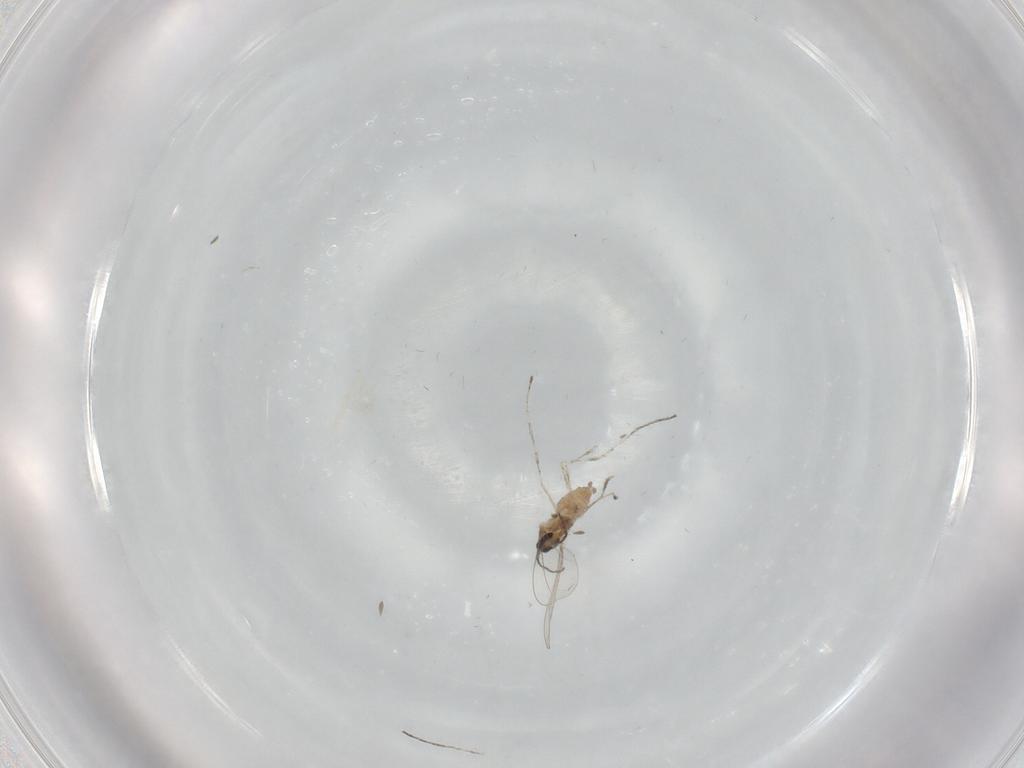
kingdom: Animalia
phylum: Arthropoda
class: Insecta
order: Diptera
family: Cecidomyiidae
